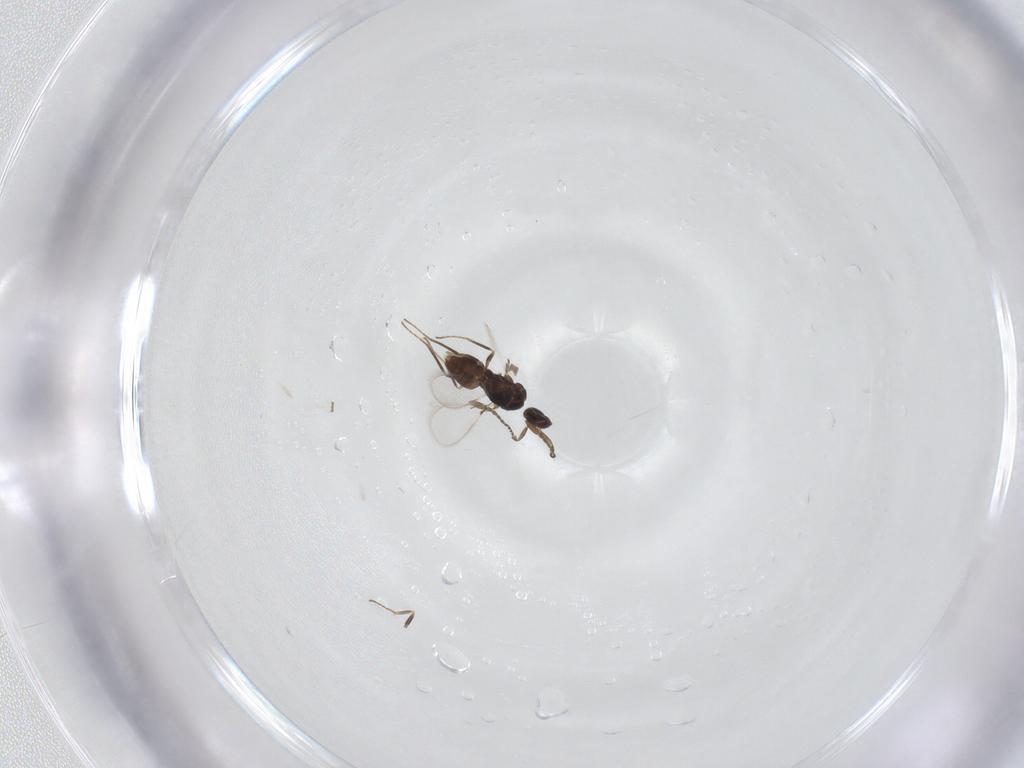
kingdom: Animalia
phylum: Arthropoda
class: Insecta
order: Hymenoptera
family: Mymaridae
